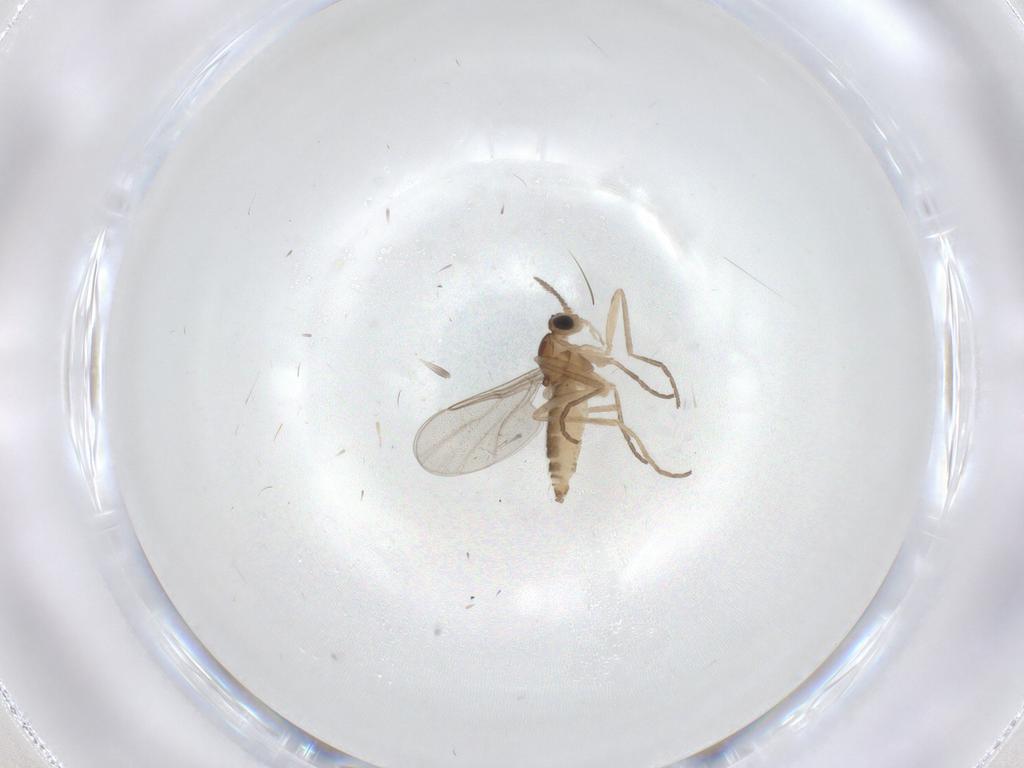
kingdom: Animalia
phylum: Arthropoda
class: Insecta
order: Diptera
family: Cecidomyiidae
